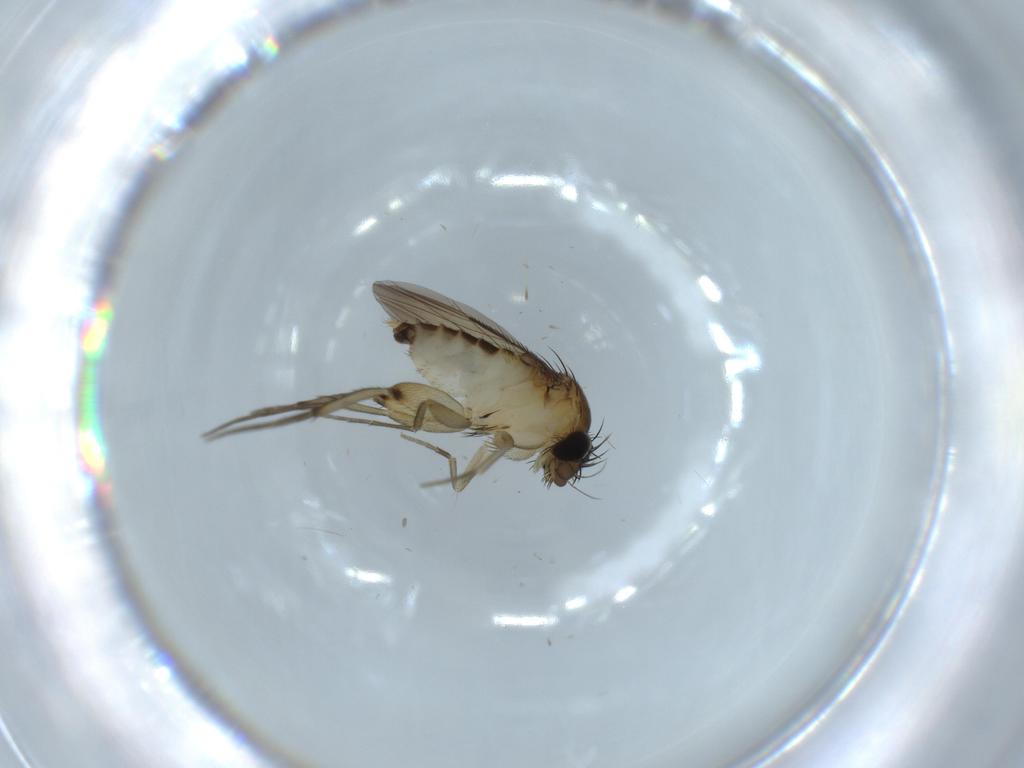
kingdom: Animalia
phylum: Arthropoda
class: Insecta
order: Diptera
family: Phoridae
